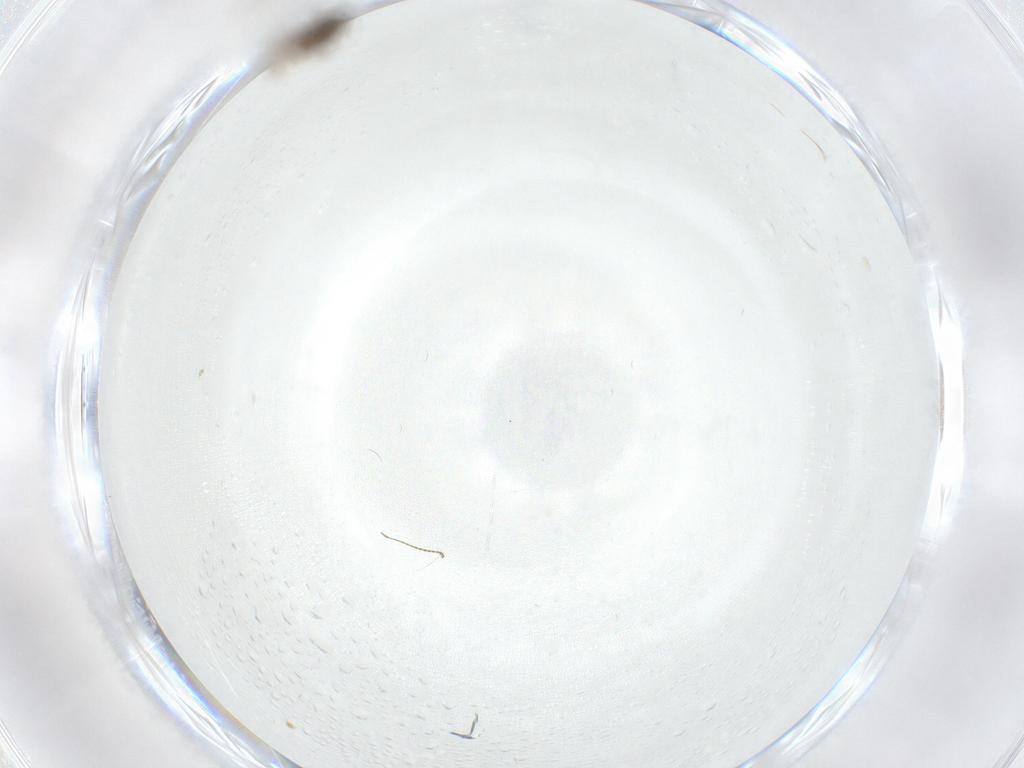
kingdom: Animalia
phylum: Arthropoda
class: Insecta
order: Diptera
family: Chironomidae
